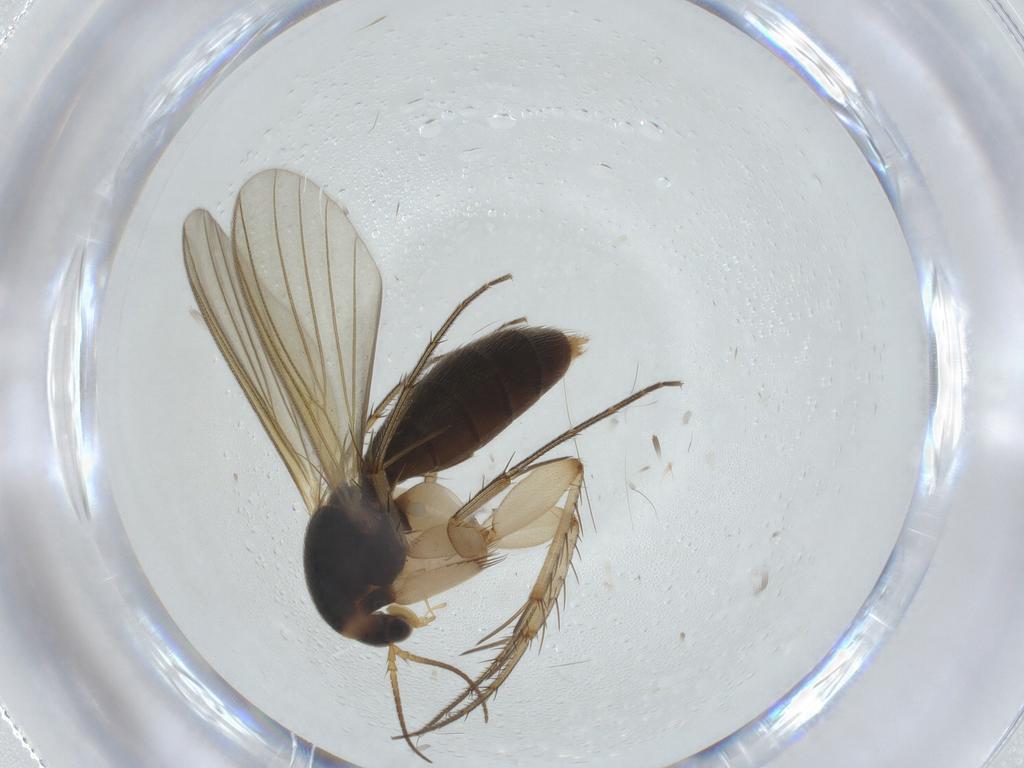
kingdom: Animalia
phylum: Arthropoda
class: Insecta
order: Diptera
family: Mycetophilidae
